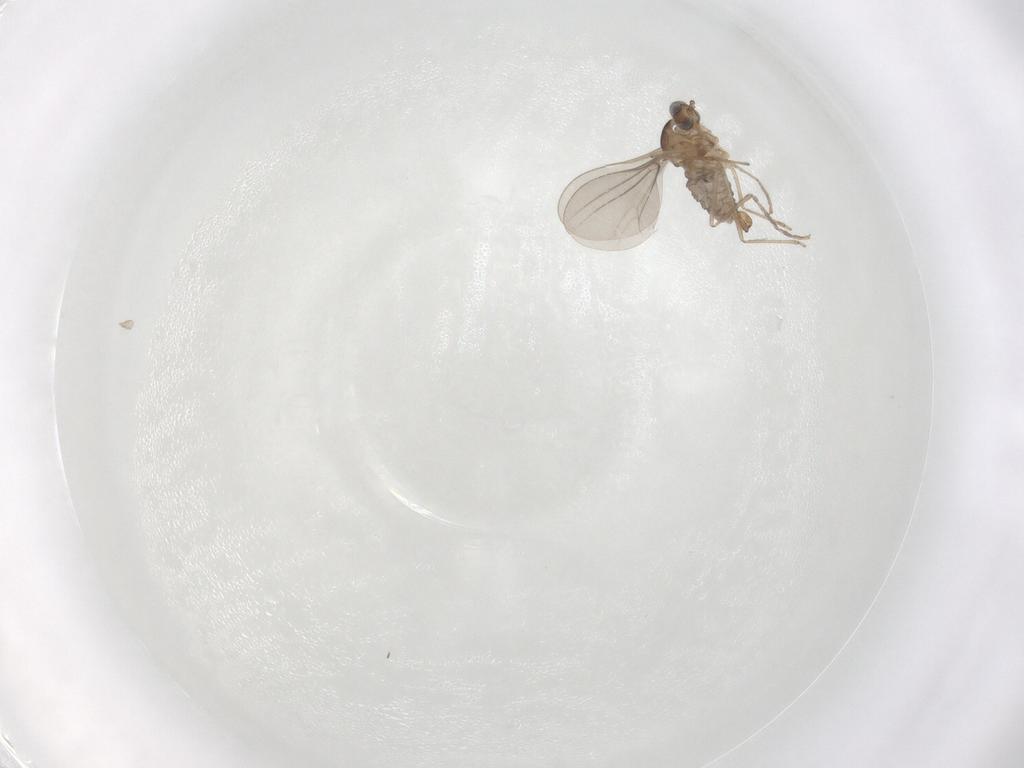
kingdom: Animalia
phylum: Arthropoda
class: Insecta
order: Diptera
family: Cecidomyiidae
